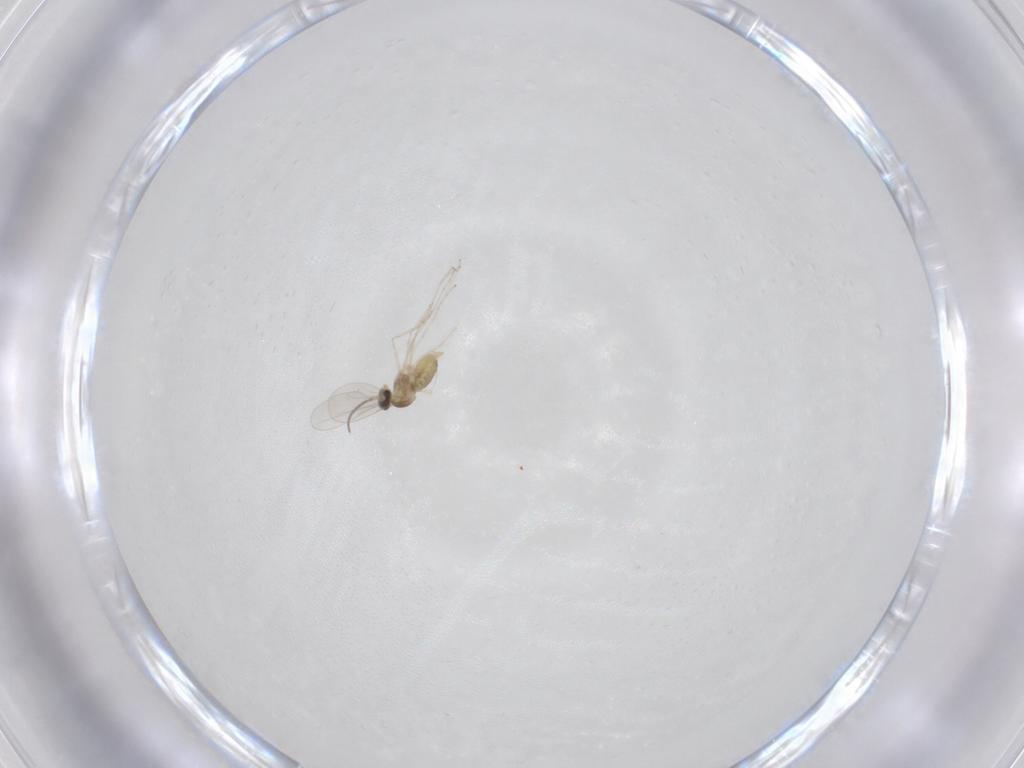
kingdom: Animalia
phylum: Arthropoda
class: Insecta
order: Diptera
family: Cecidomyiidae
